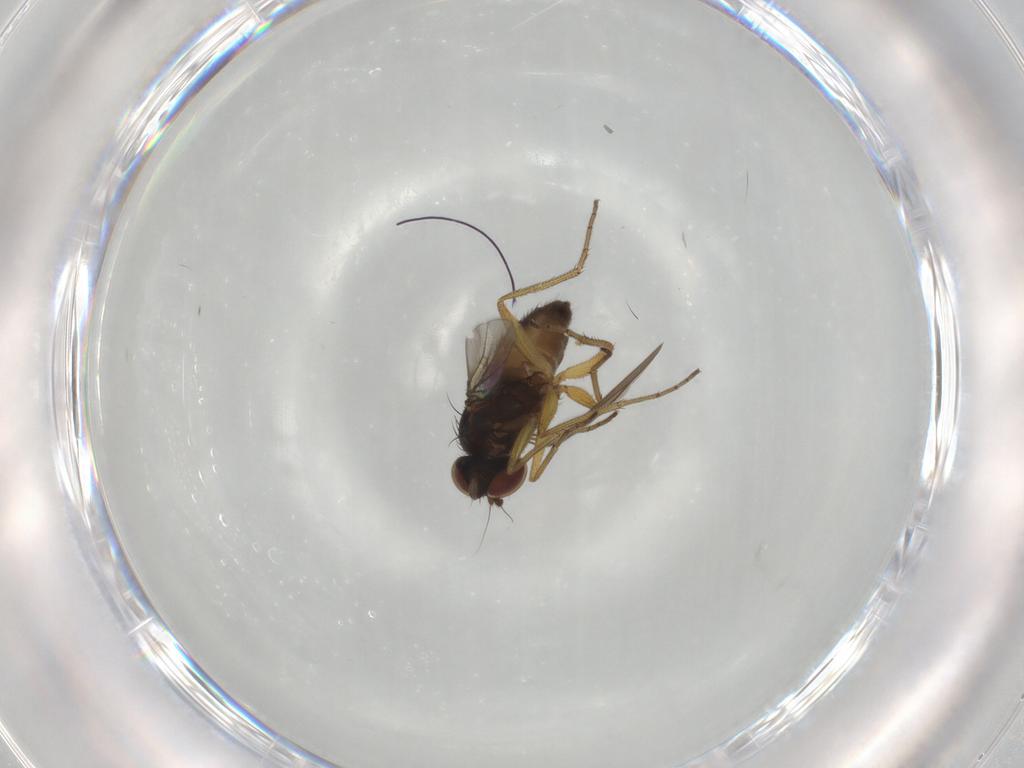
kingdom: Animalia
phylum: Arthropoda
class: Insecta
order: Diptera
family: Dolichopodidae
